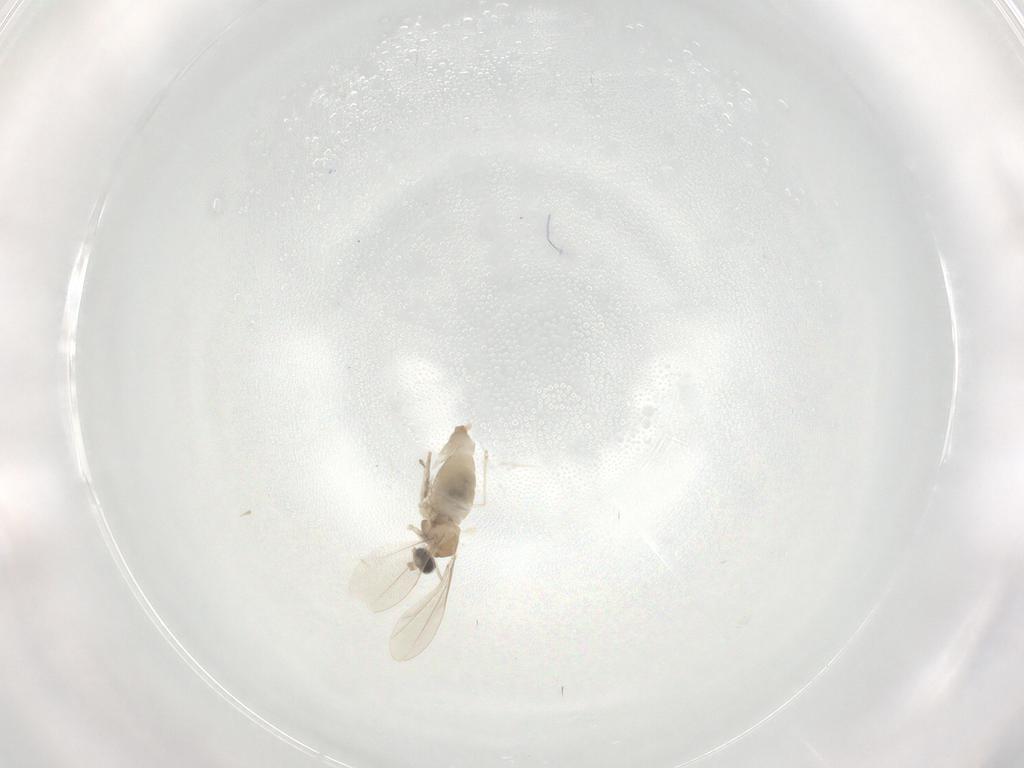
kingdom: Animalia
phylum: Arthropoda
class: Insecta
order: Diptera
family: Cecidomyiidae
